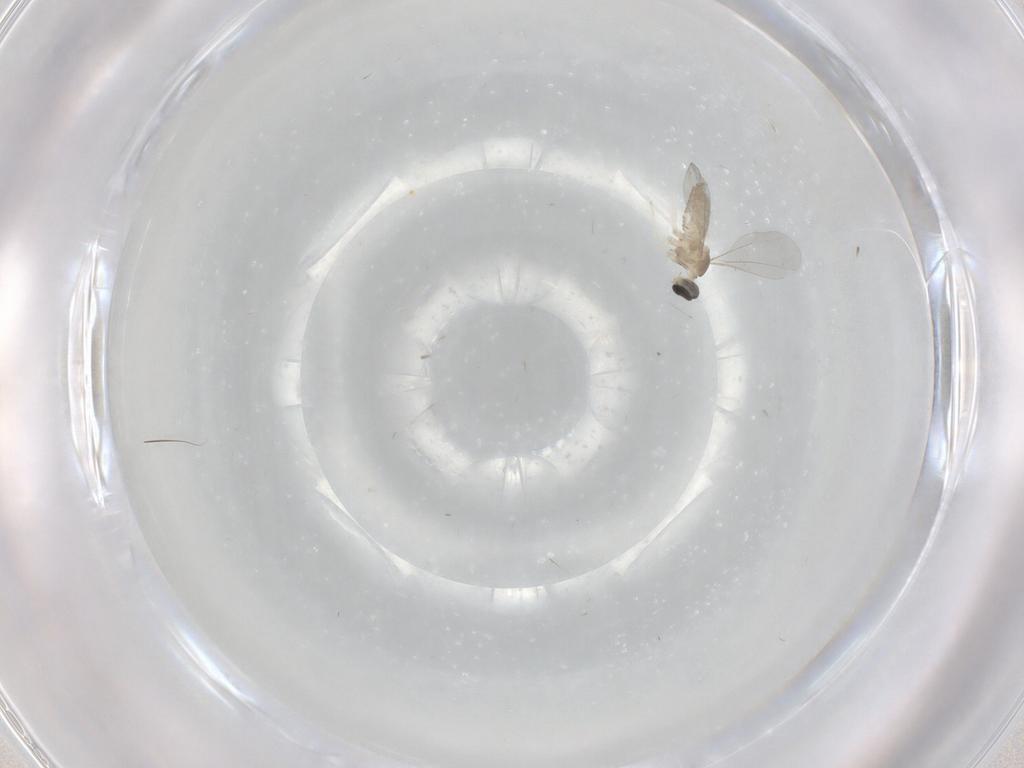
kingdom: Animalia
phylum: Arthropoda
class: Insecta
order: Diptera
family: Cecidomyiidae
